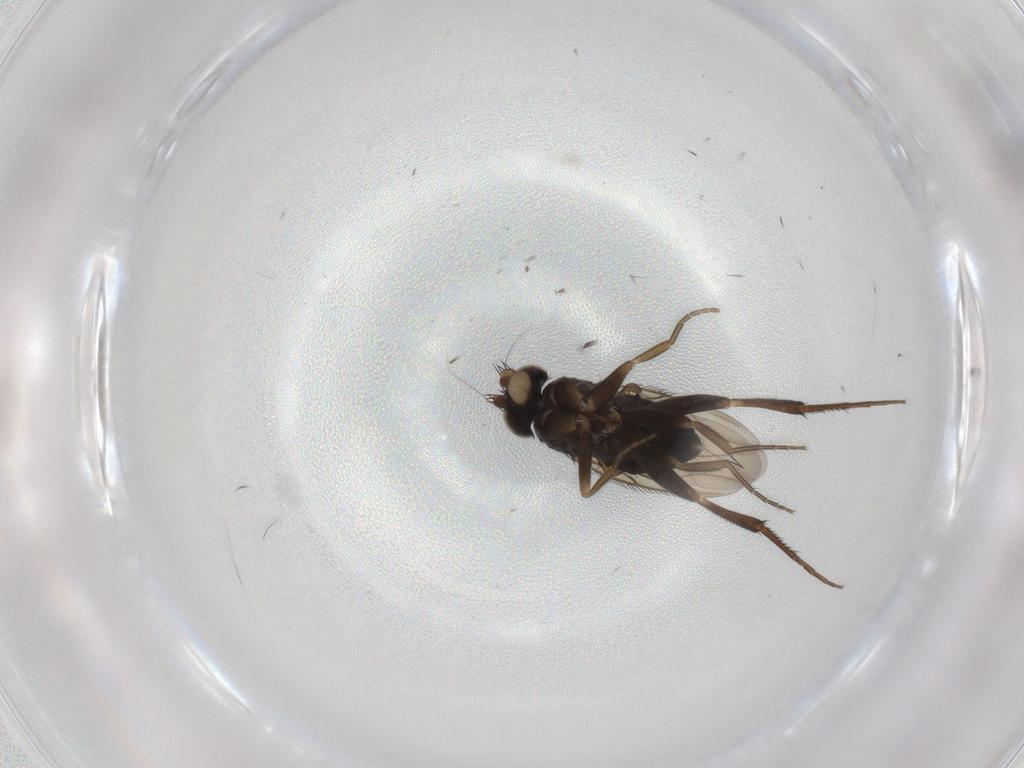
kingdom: Animalia
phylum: Arthropoda
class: Insecta
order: Diptera
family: Phoridae
